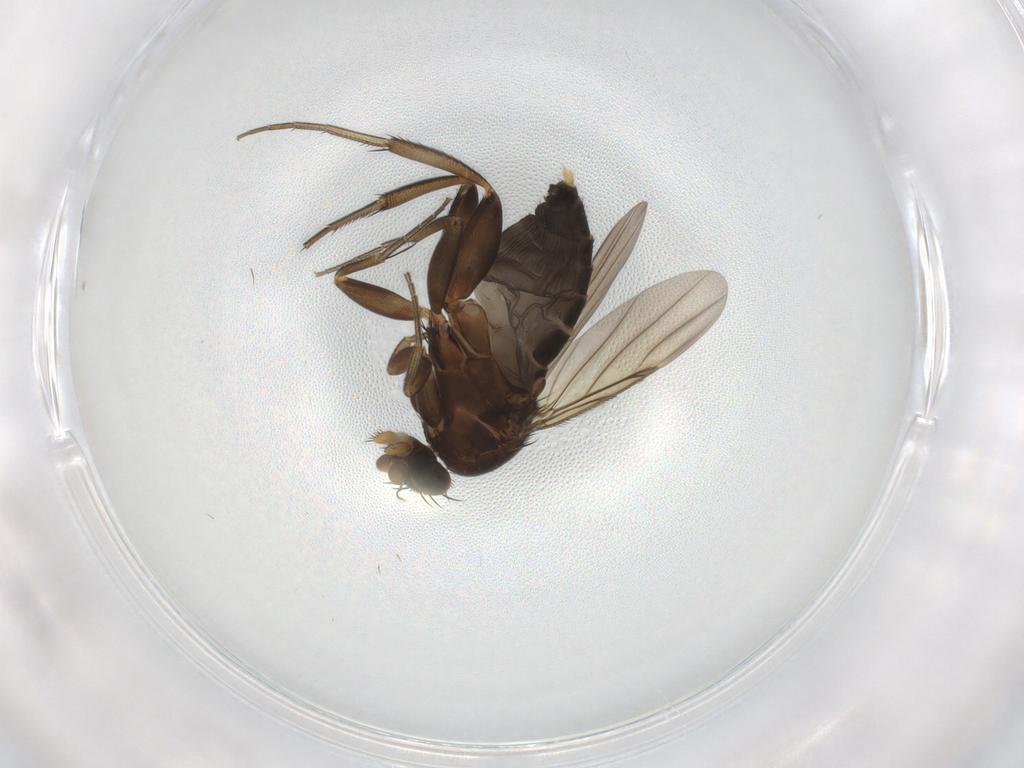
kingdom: Animalia
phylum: Arthropoda
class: Insecta
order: Diptera
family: Phoridae
